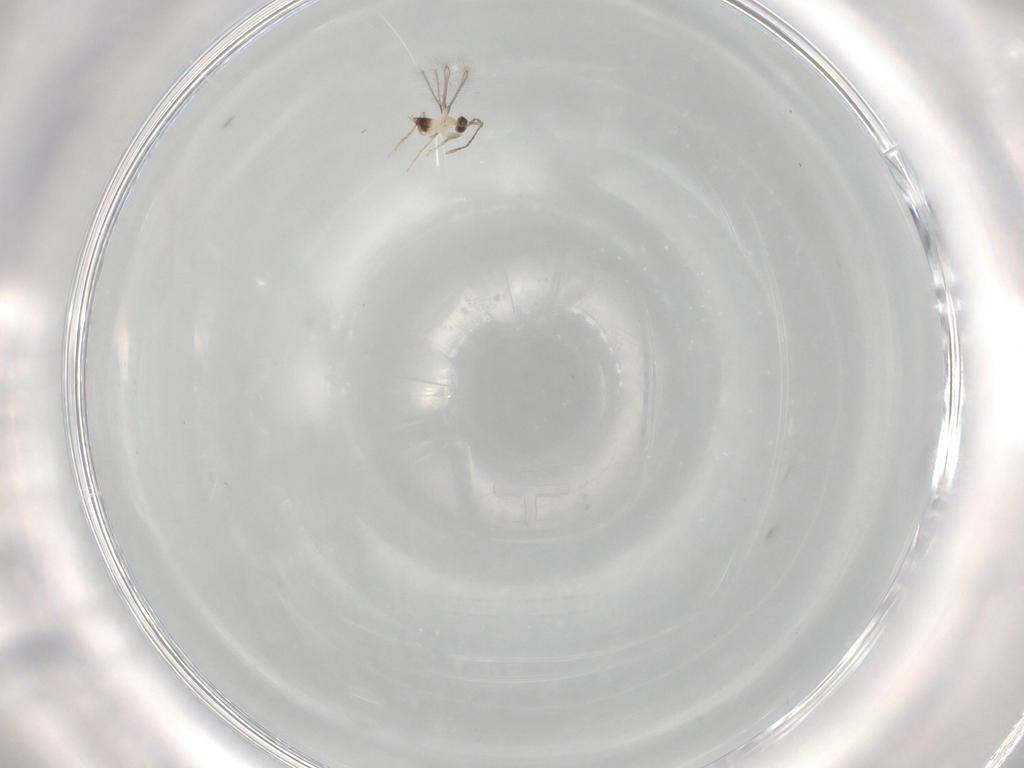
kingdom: Animalia
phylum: Arthropoda
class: Insecta
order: Hymenoptera
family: Mymaridae
